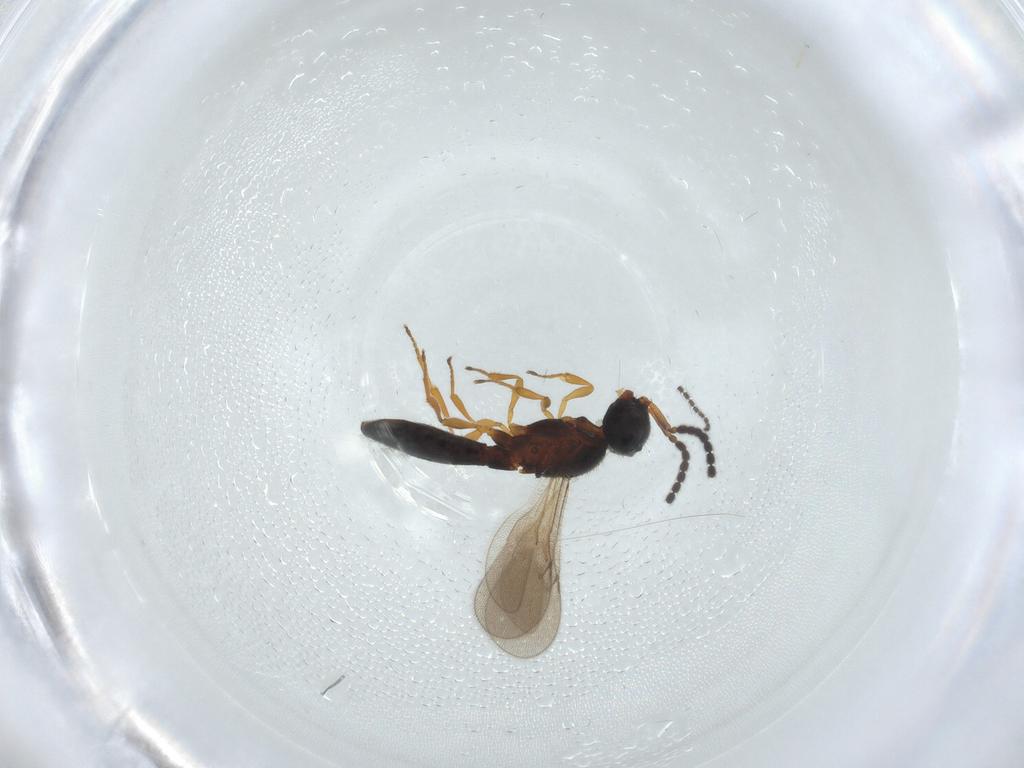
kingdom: Animalia
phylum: Arthropoda
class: Insecta
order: Hymenoptera
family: Scelionidae
